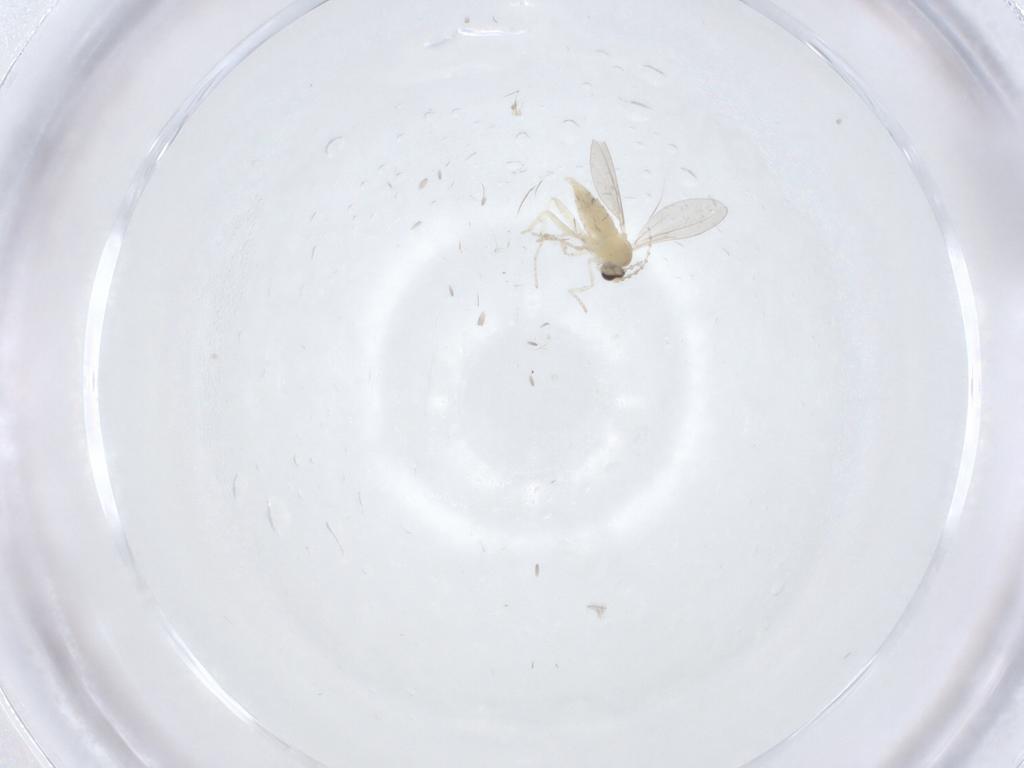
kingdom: Animalia
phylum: Arthropoda
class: Insecta
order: Diptera
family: Cecidomyiidae
